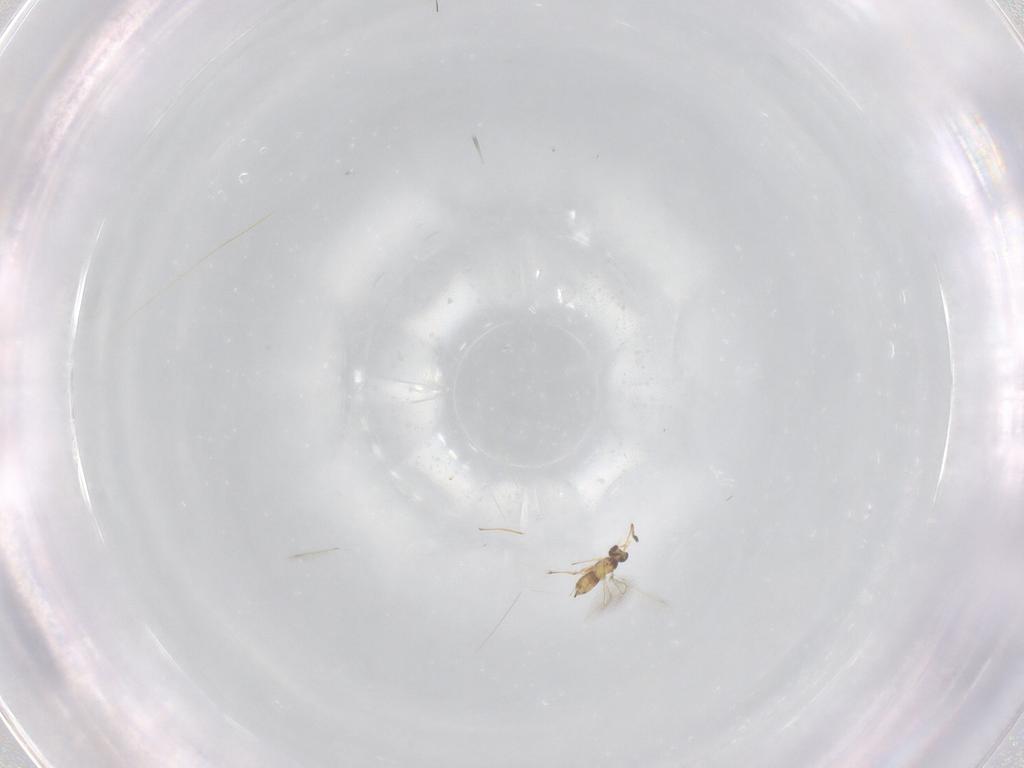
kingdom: Animalia
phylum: Arthropoda
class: Insecta
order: Hymenoptera
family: Mymaridae
